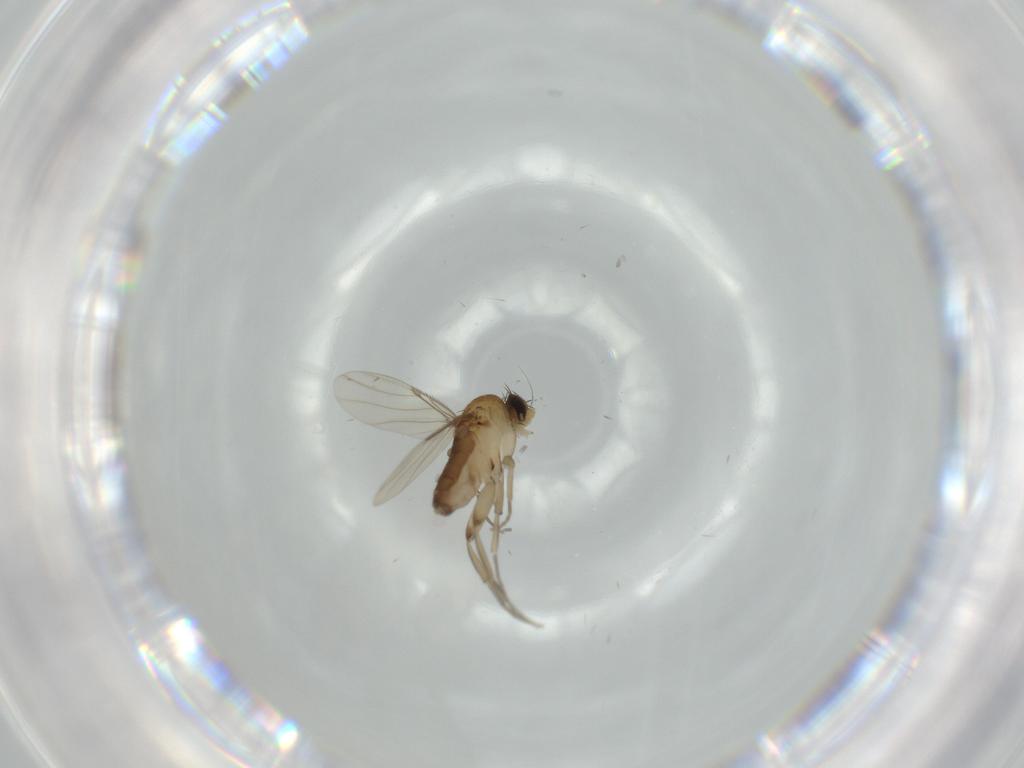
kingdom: Animalia
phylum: Arthropoda
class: Insecta
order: Diptera
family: Phoridae
